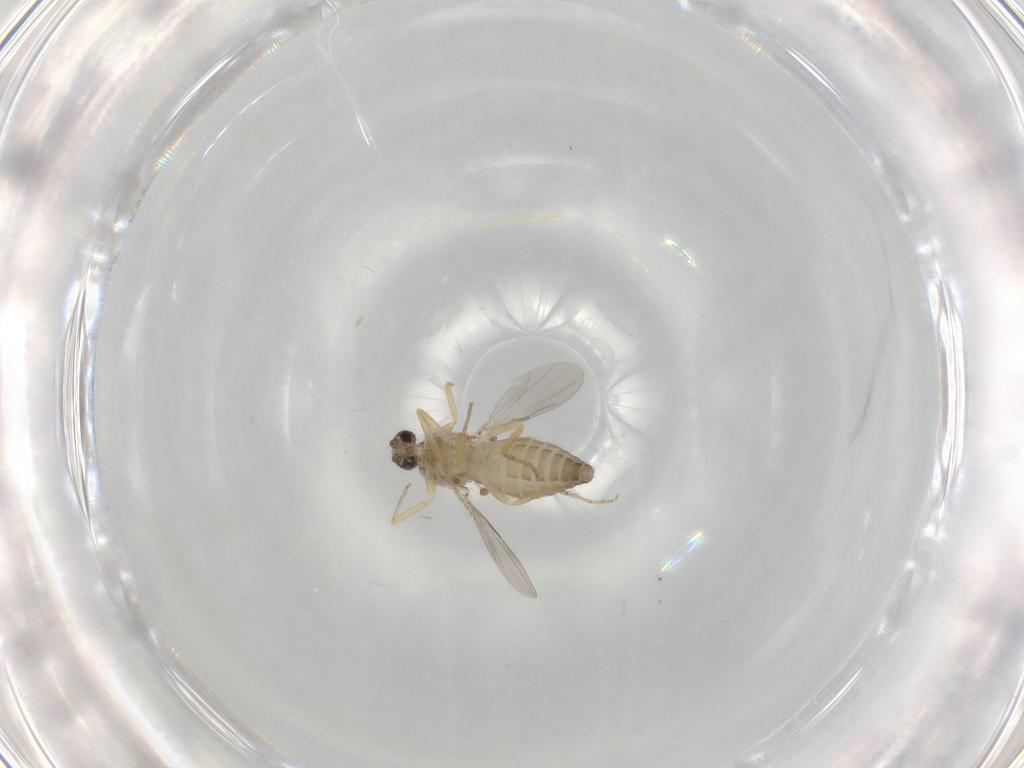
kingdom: Animalia
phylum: Arthropoda
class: Insecta
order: Diptera
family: Ceratopogonidae
